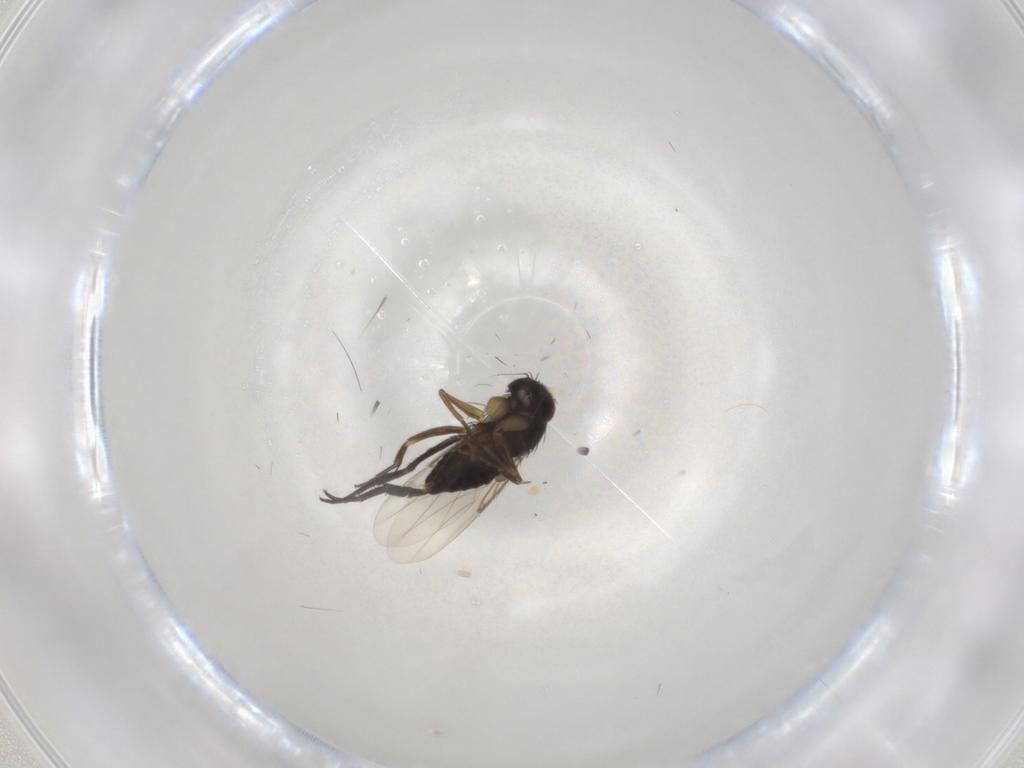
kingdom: Animalia
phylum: Arthropoda
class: Insecta
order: Diptera
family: Phoridae
